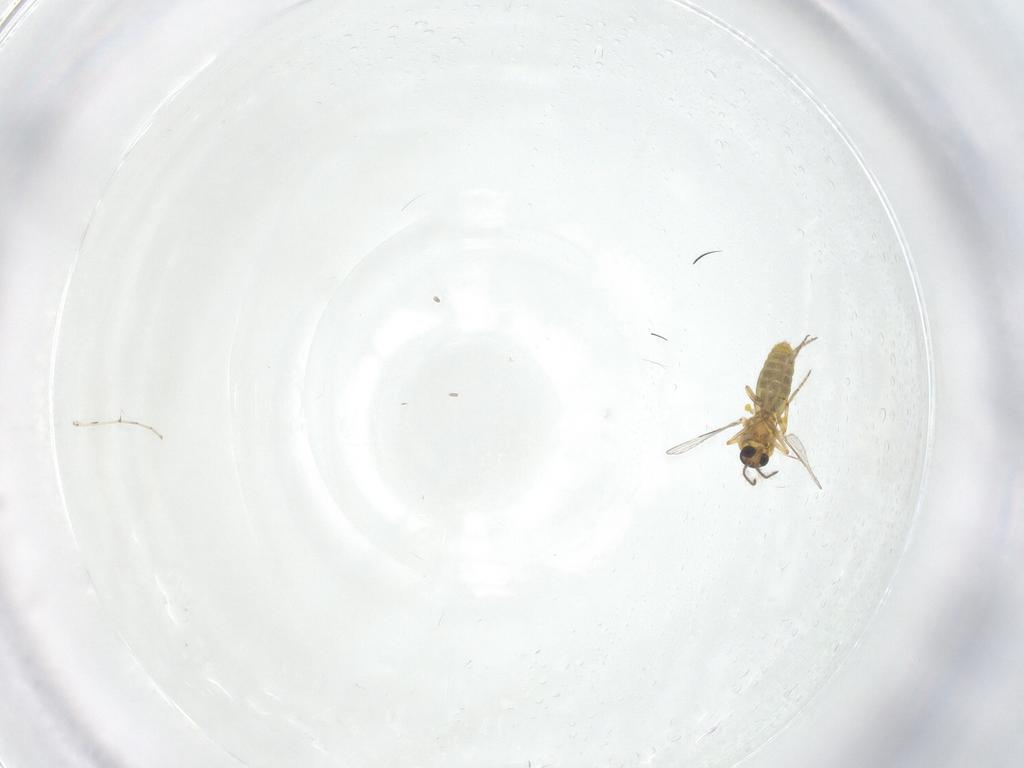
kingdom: Animalia
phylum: Arthropoda
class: Insecta
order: Diptera
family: Cecidomyiidae
